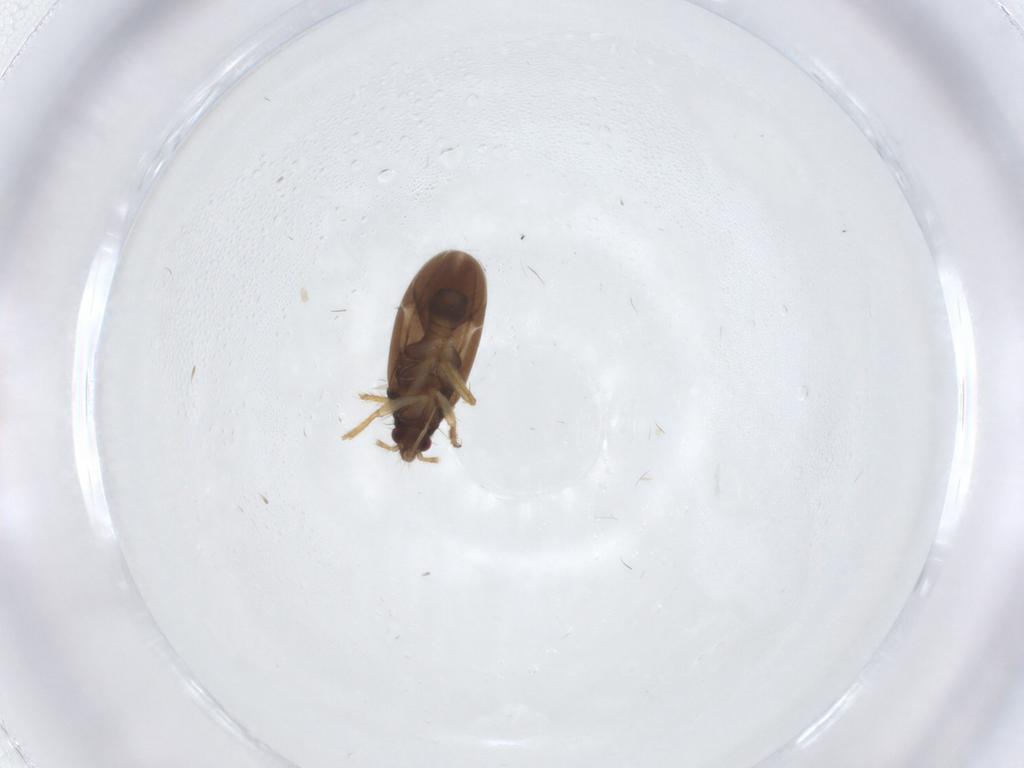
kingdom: Animalia
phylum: Arthropoda
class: Insecta
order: Hemiptera
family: Ceratocombidae
